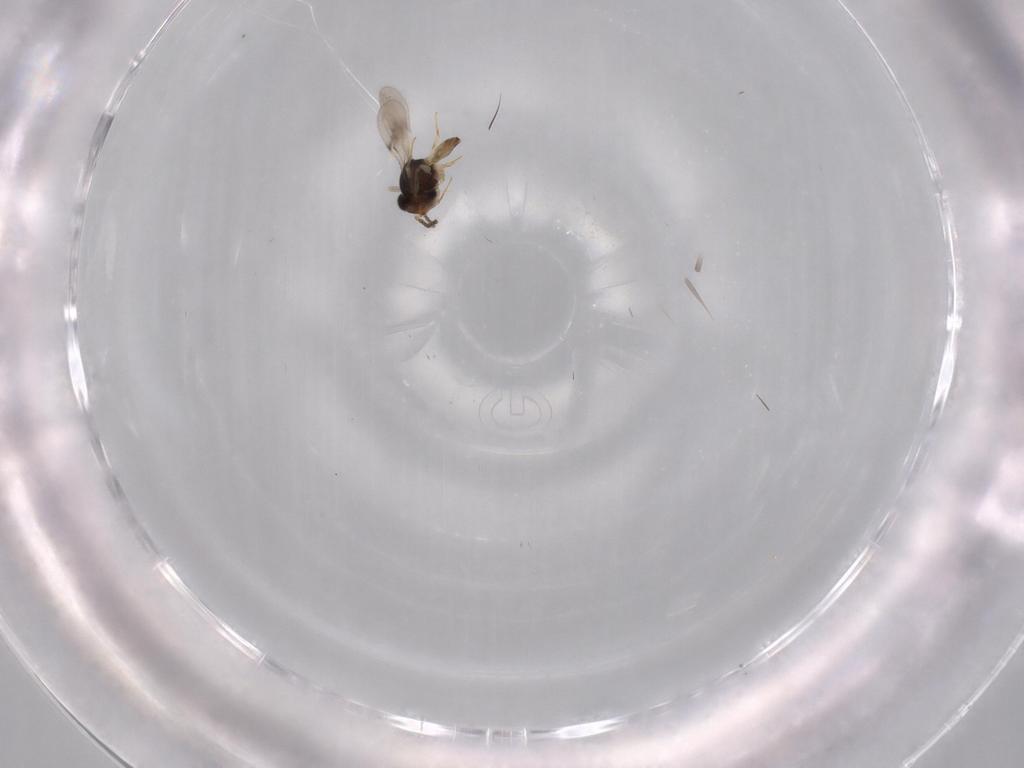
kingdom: Animalia
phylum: Arthropoda
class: Insecta
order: Hymenoptera
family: Scelionidae
